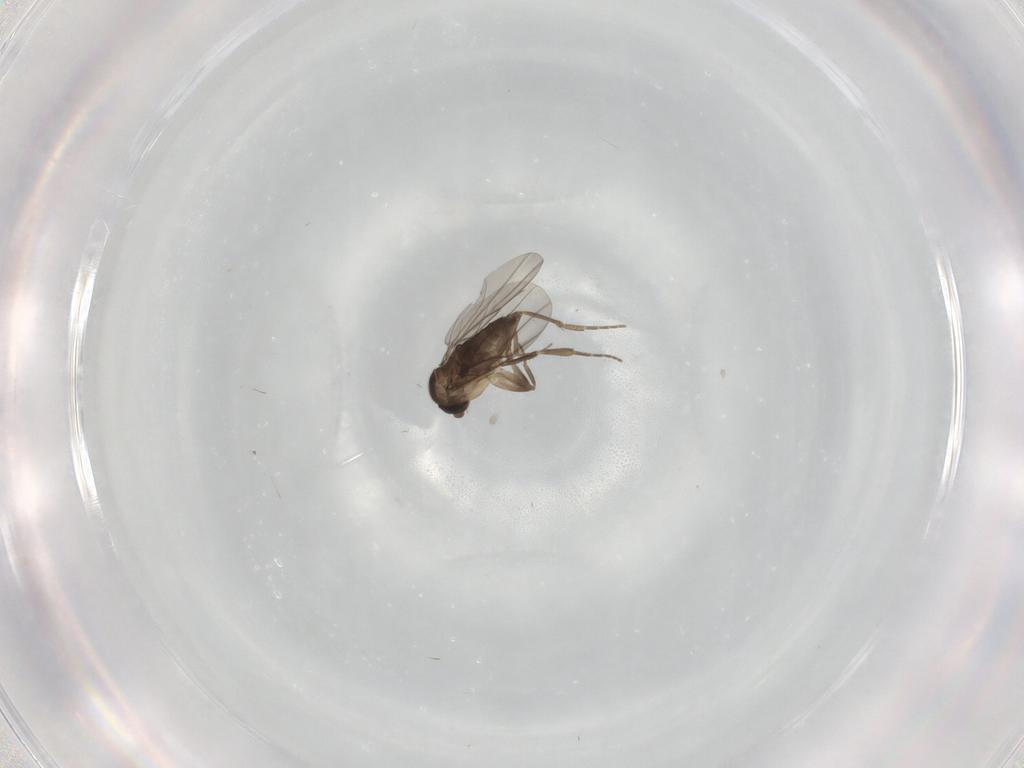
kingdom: Animalia
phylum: Arthropoda
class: Insecta
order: Diptera
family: Phoridae
